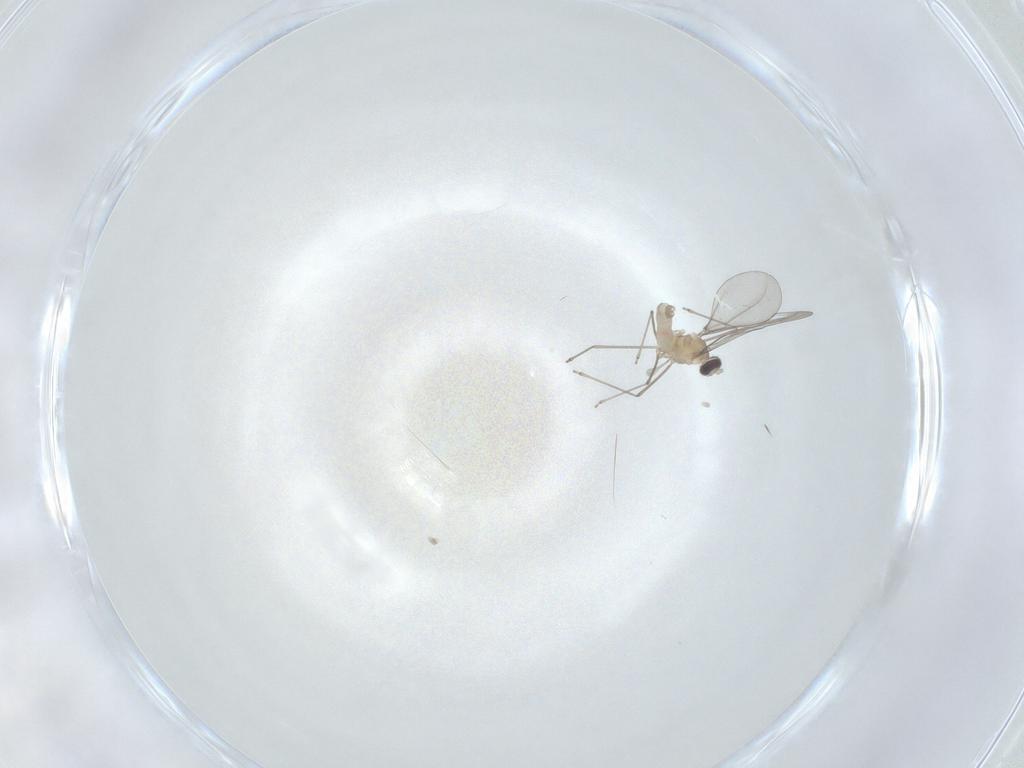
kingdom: Animalia
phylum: Arthropoda
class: Insecta
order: Diptera
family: Cecidomyiidae
